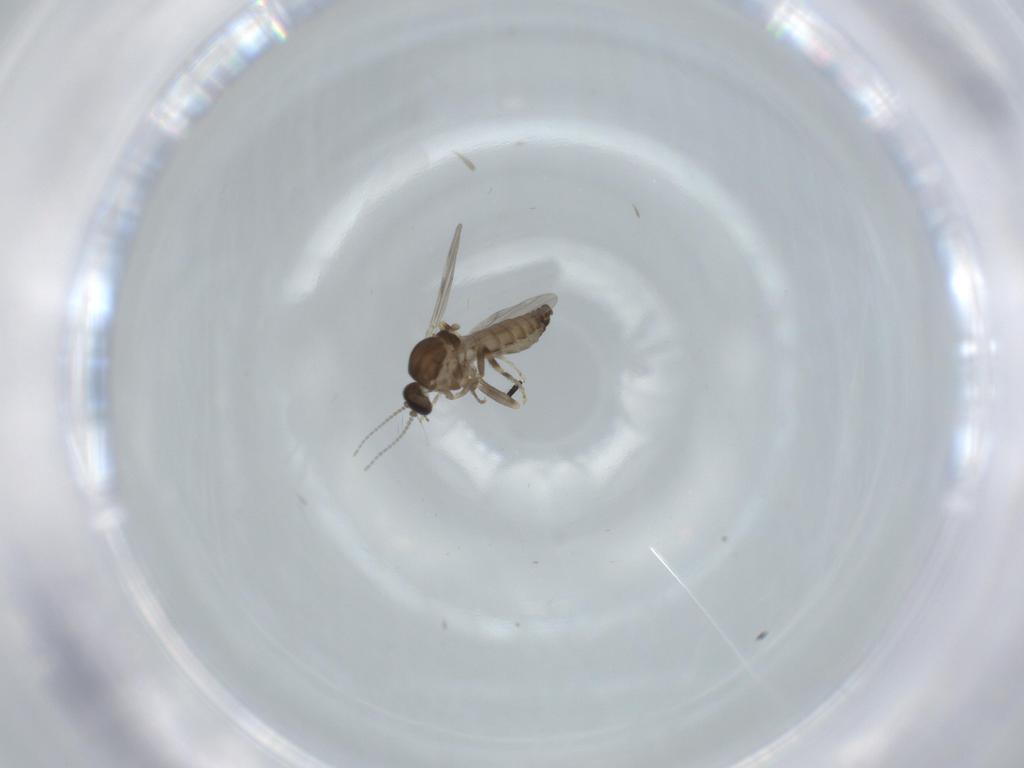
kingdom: Animalia
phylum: Arthropoda
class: Insecta
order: Diptera
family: Ceratopogonidae
